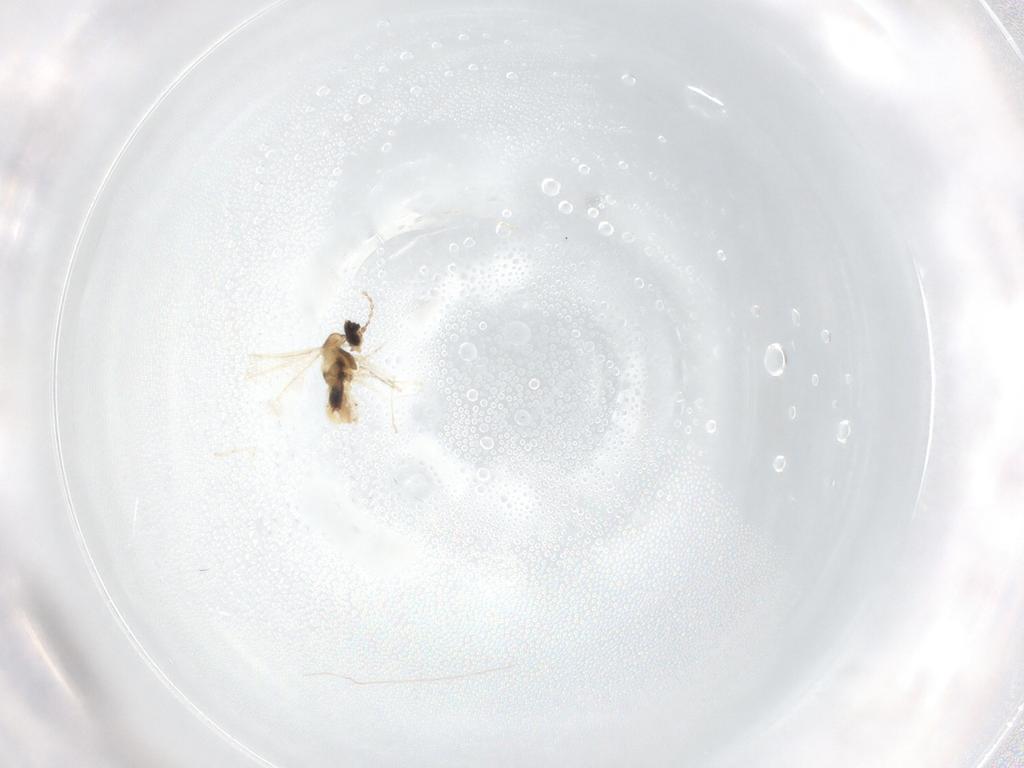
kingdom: Animalia
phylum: Arthropoda
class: Insecta
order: Diptera
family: Cecidomyiidae
